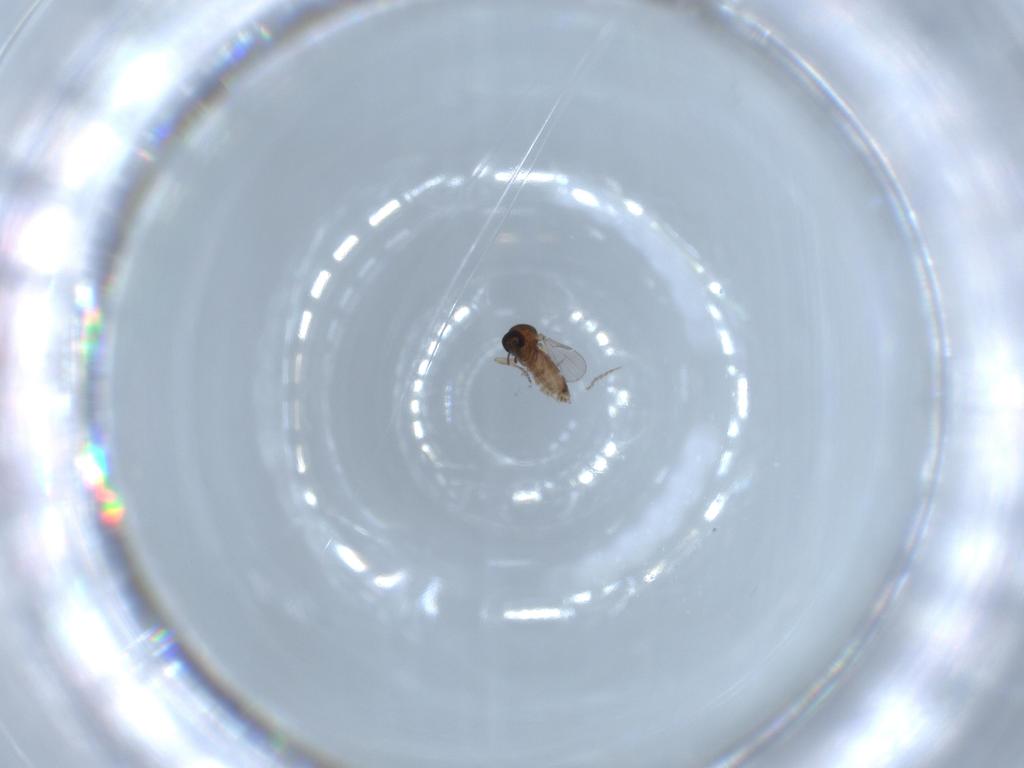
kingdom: Animalia
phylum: Arthropoda
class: Insecta
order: Diptera
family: Ceratopogonidae
